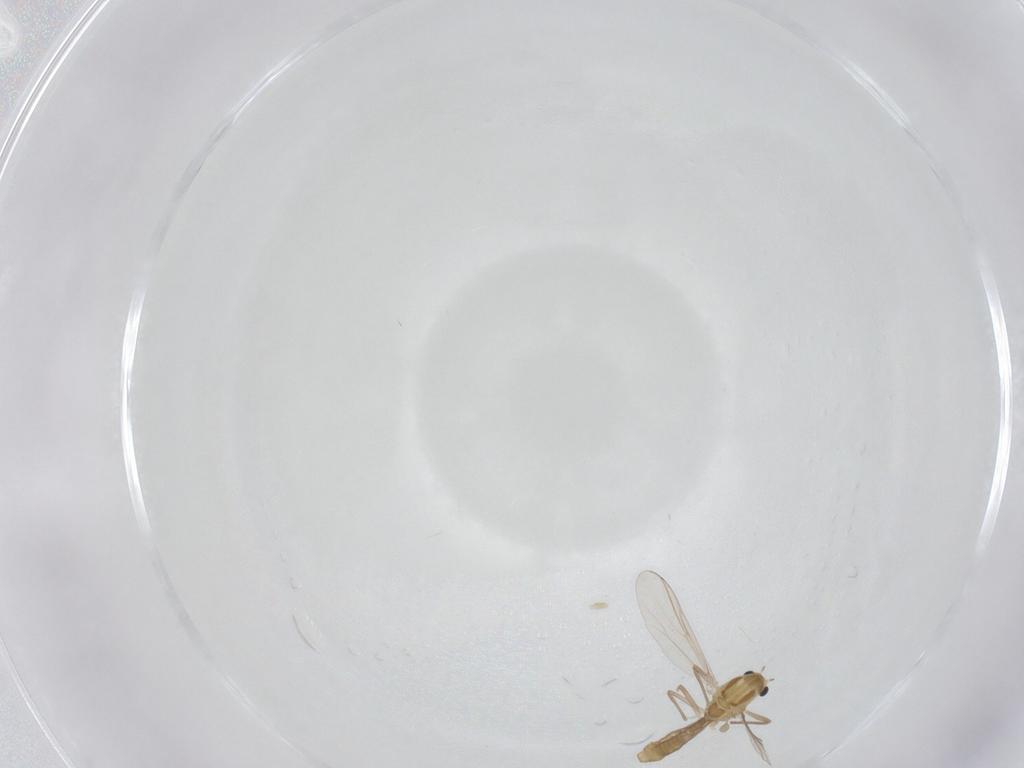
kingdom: Animalia
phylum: Arthropoda
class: Insecta
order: Diptera
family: Chironomidae
